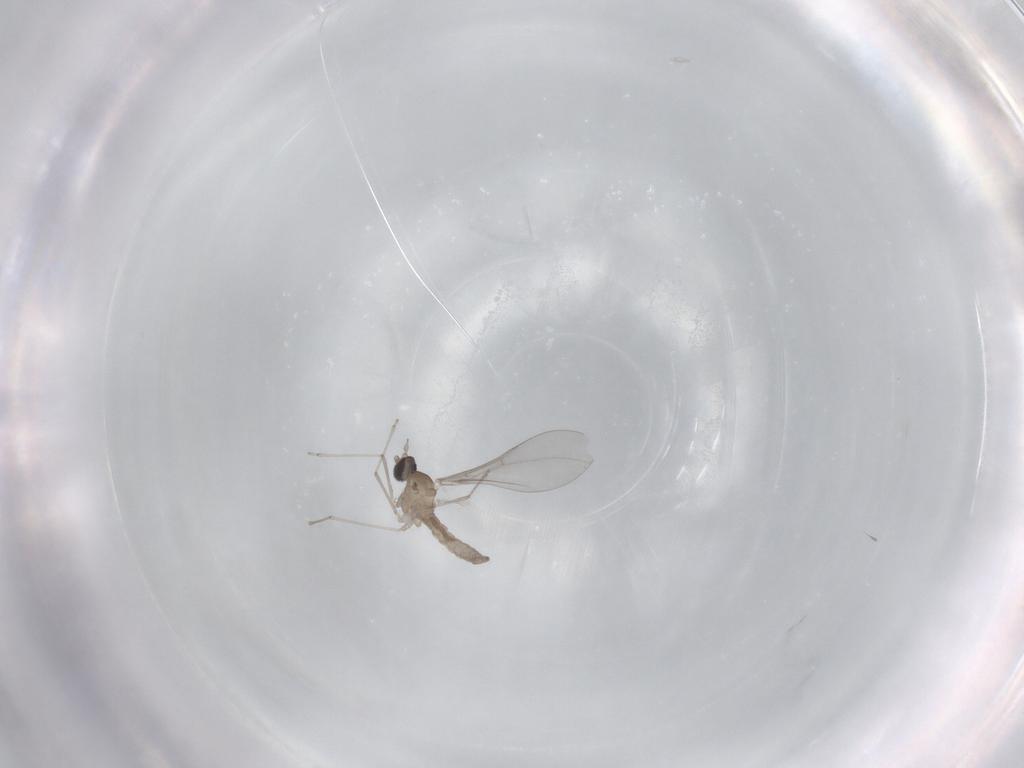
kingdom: Animalia
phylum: Arthropoda
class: Insecta
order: Diptera
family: Cecidomyiidae
